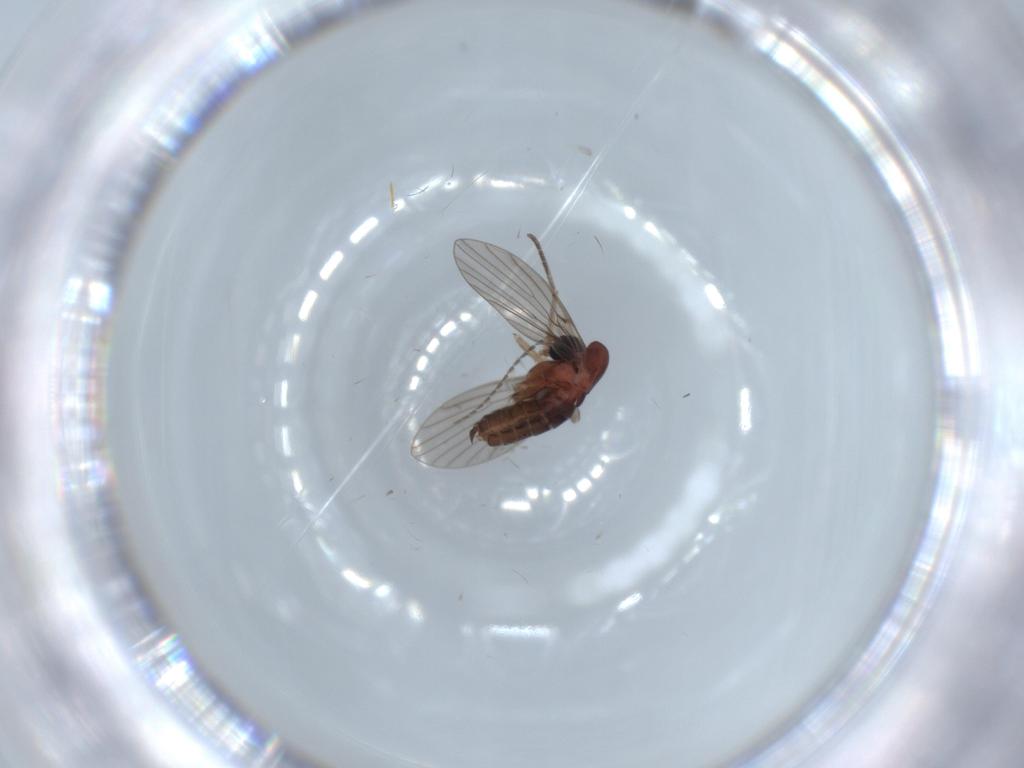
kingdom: Animalia
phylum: Arthropoda
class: Insecta
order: Diptera
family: Psychodidae
